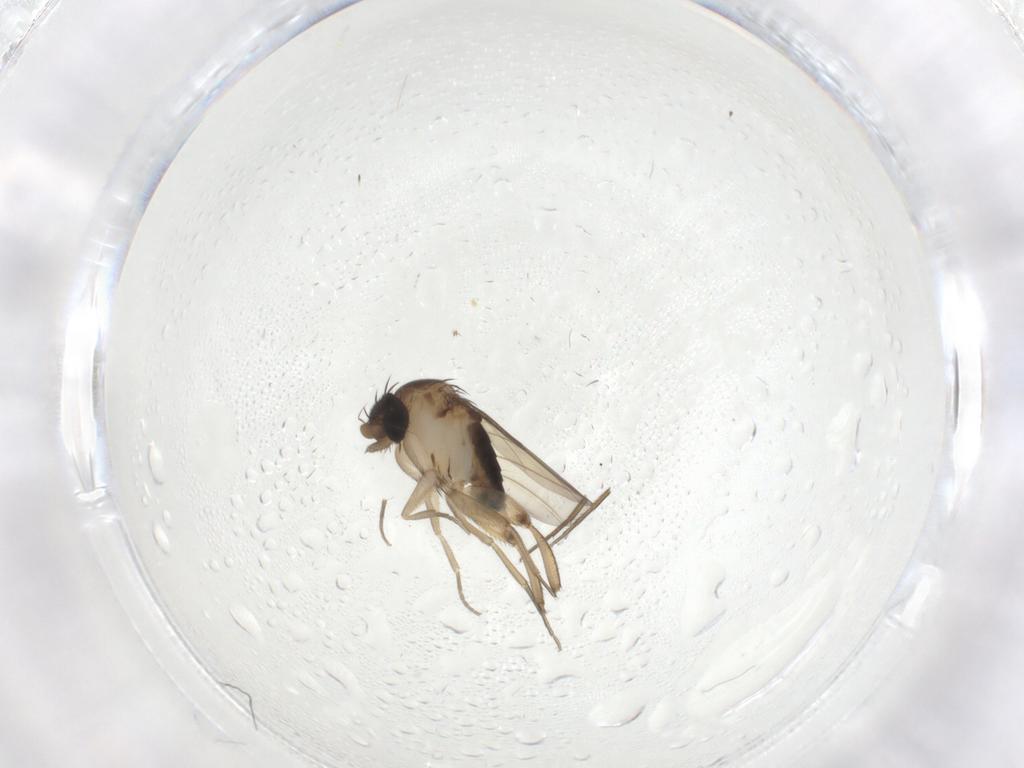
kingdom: Animalia
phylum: Arthropoda
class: Insecta
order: Diptera
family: Phoridae
